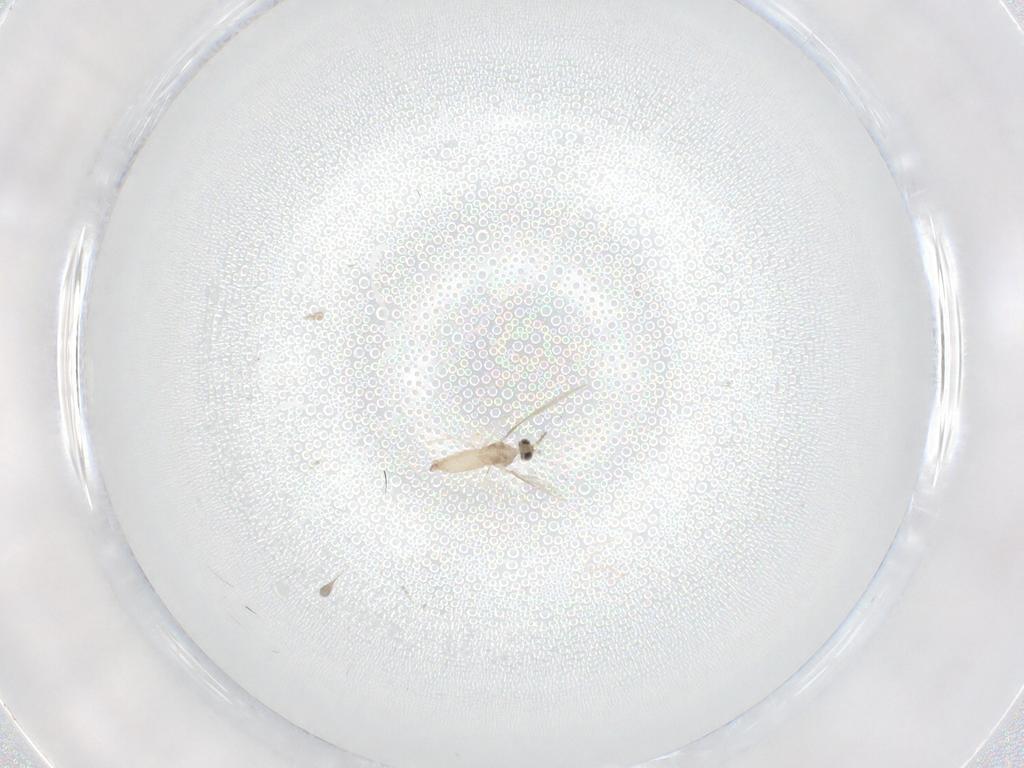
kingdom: Animalia
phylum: Arthropoda
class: Insecta
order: Diptera
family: Cecidomyiidae
